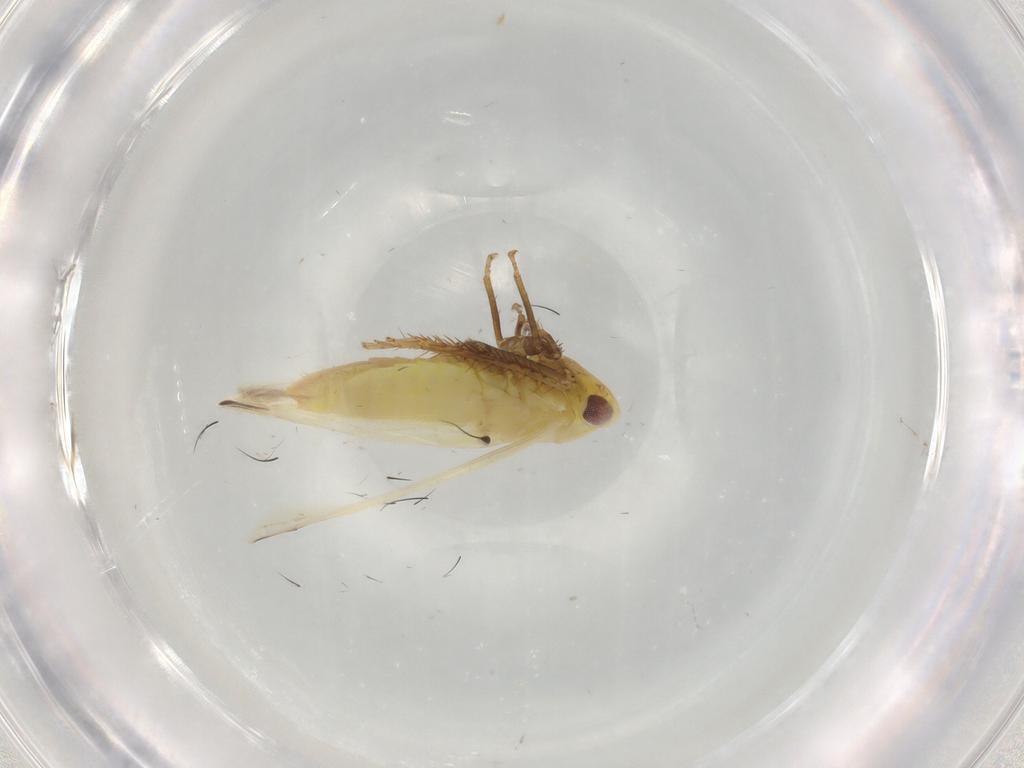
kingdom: Animalia
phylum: Arthropoda
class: Insecta
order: Hemiptera
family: Cicadellidae
